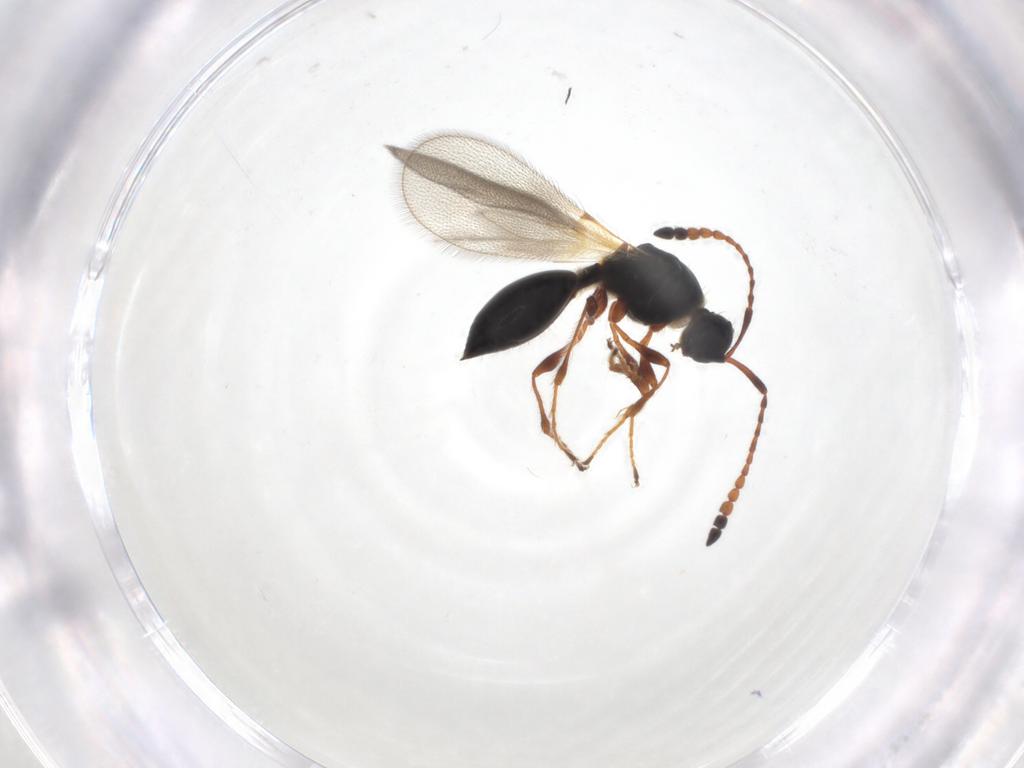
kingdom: Animalia
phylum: Arthropoda
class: Insecta
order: Hymenoptera
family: Diapriidae
